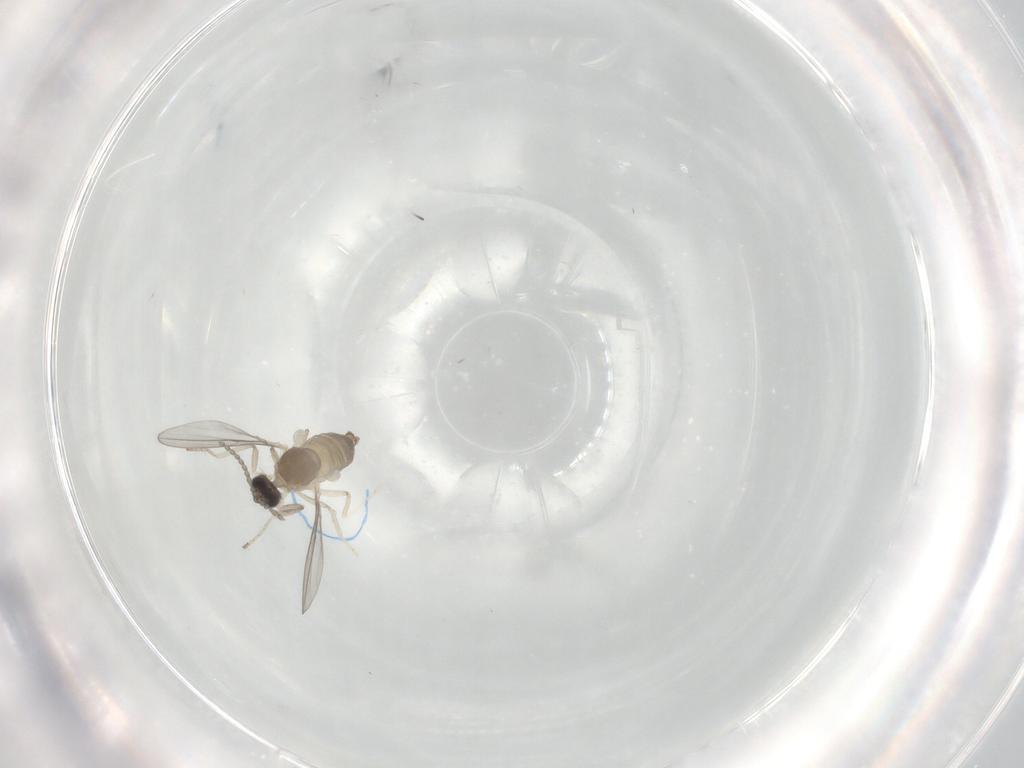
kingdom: Animalia
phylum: Arthropoda
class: Insecta
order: Diptera
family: Cecidomyiidae
